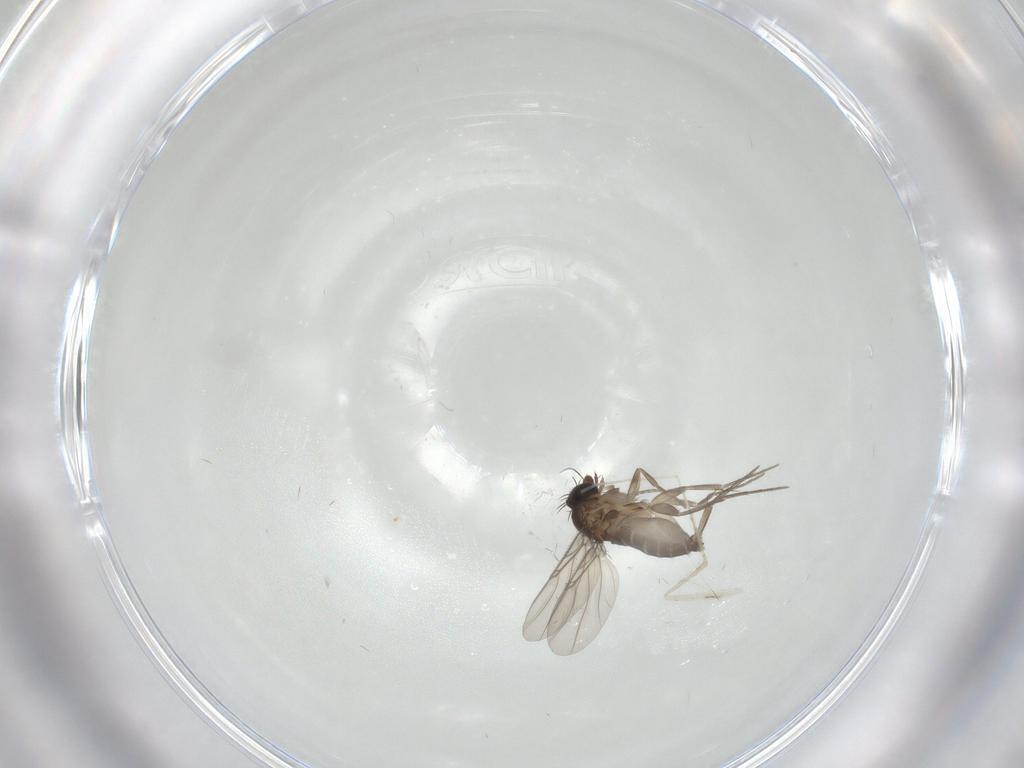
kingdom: Animalia
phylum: Arthropoda
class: Insecta
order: Diptera
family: Phoridae
